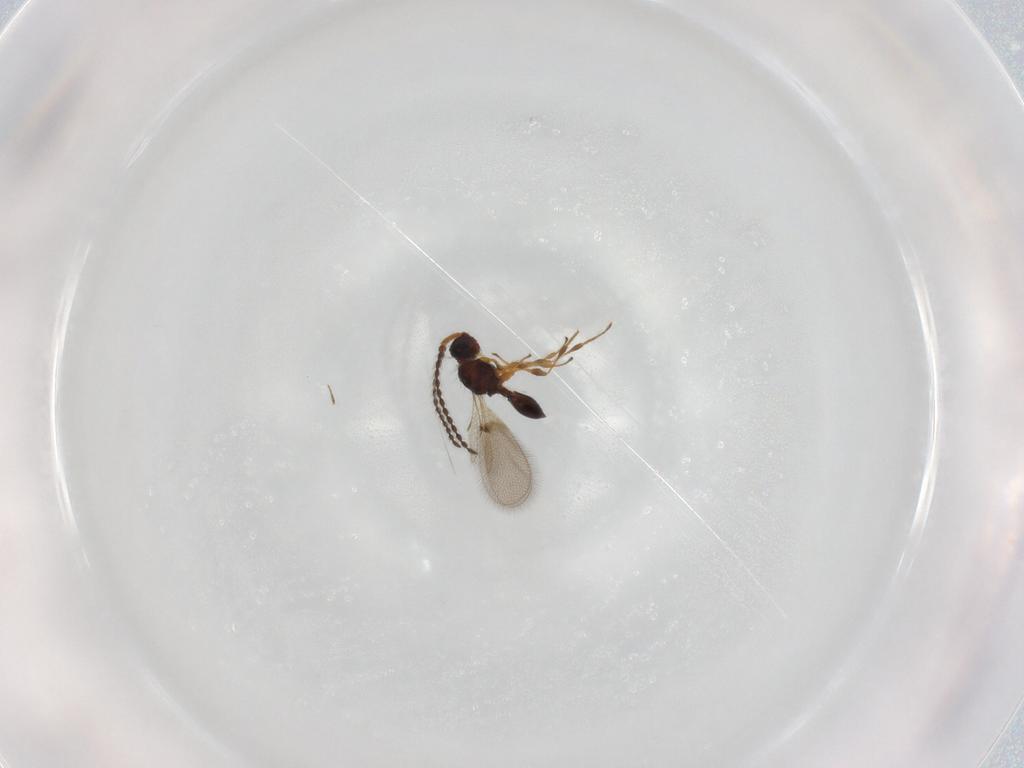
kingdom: Animalia
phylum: Arthropoda
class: Insecta
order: Hymenoptera
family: Diapriidae
